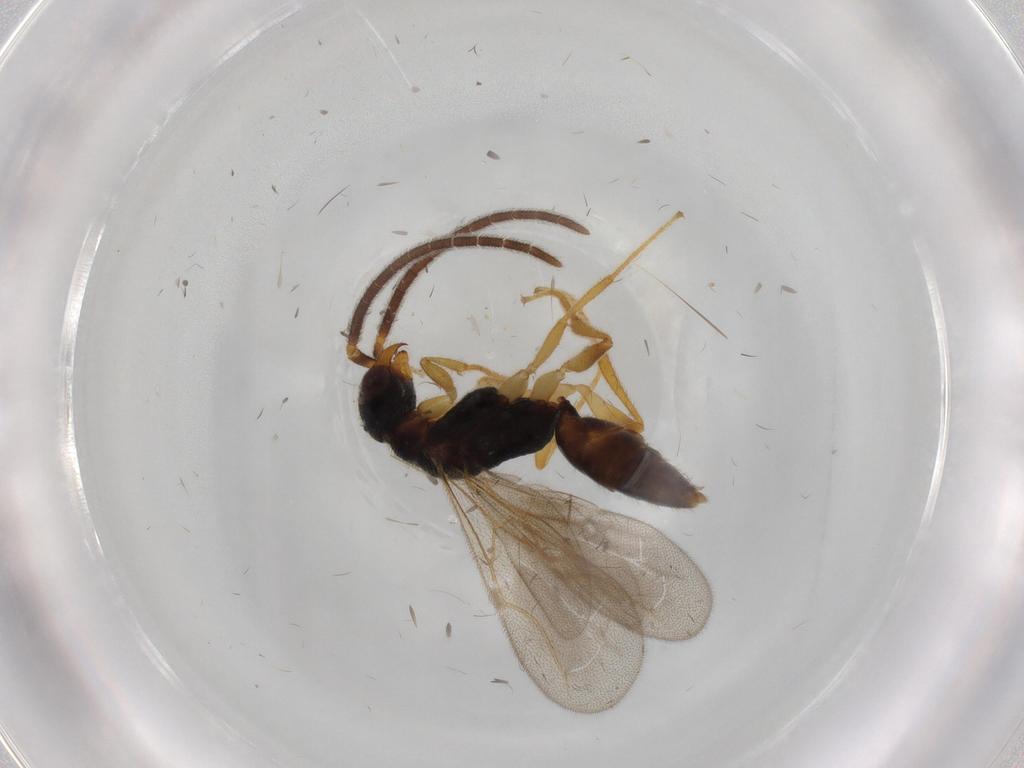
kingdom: Animalia
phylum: Arthropoda
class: Insecta
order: Hymenoptera
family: Bethylidae
